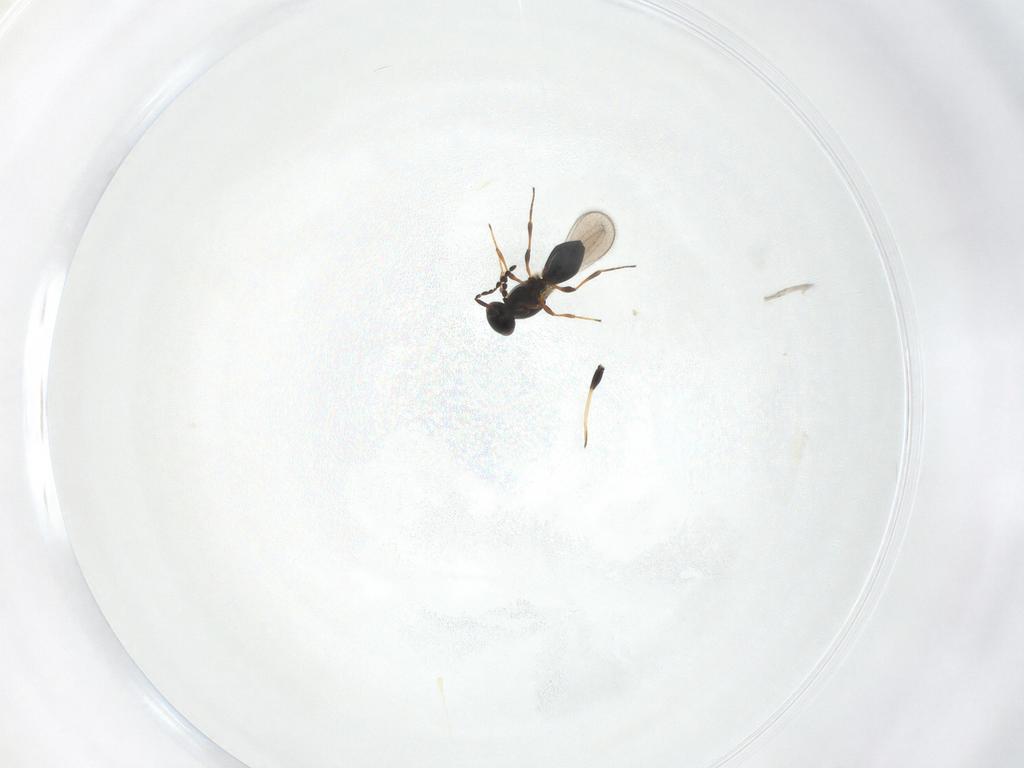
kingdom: Animalia
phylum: Arthropoda
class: Insecta
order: Hymenoptera
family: Platygastridae
